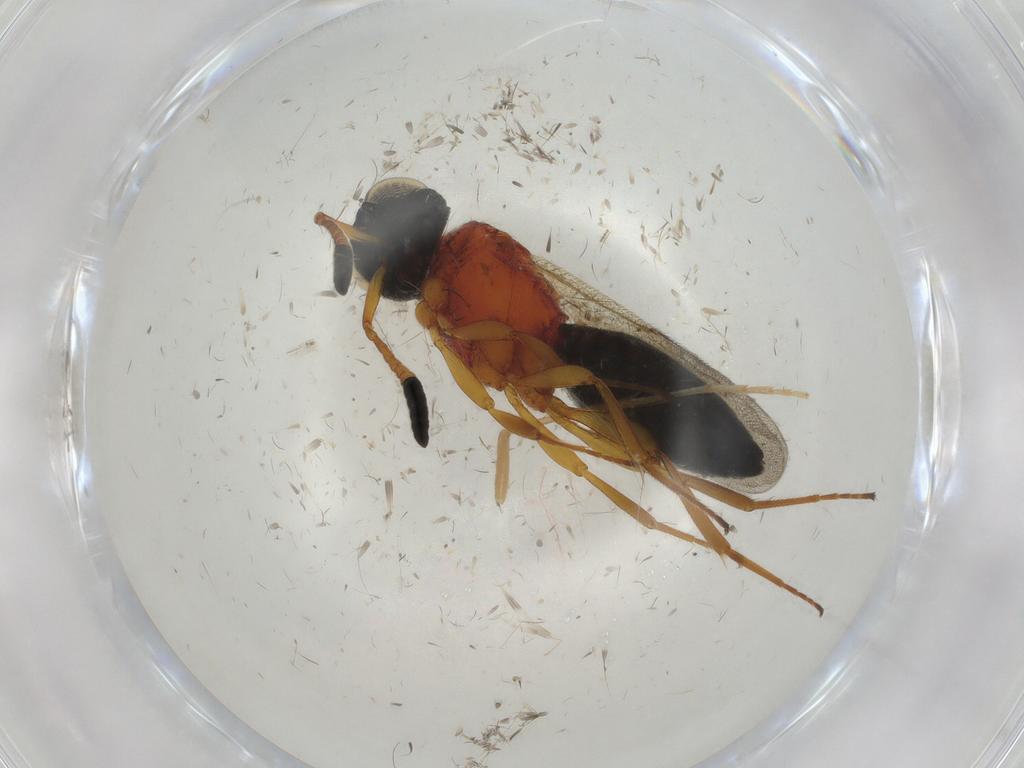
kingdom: Animalia
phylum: Arthropoda
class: Insecta
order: Hymenoptera
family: Scelionidae
